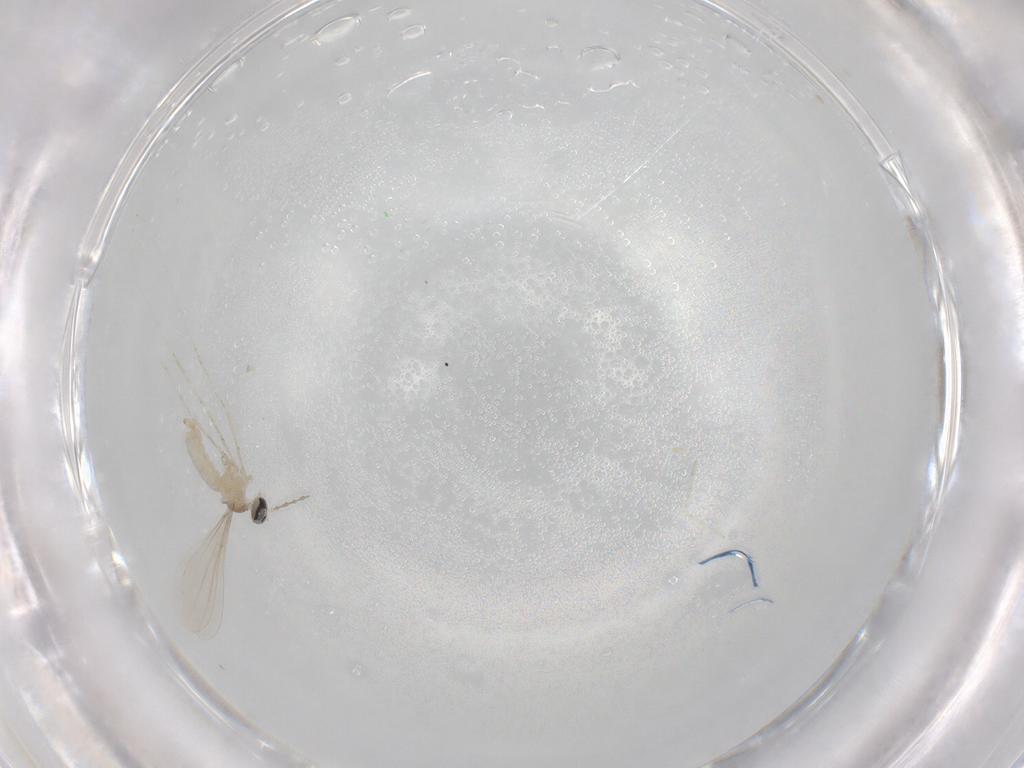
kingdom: Animalia
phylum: Arthropoda
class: Insecta
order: Diptera
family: Cecidomyiidae
